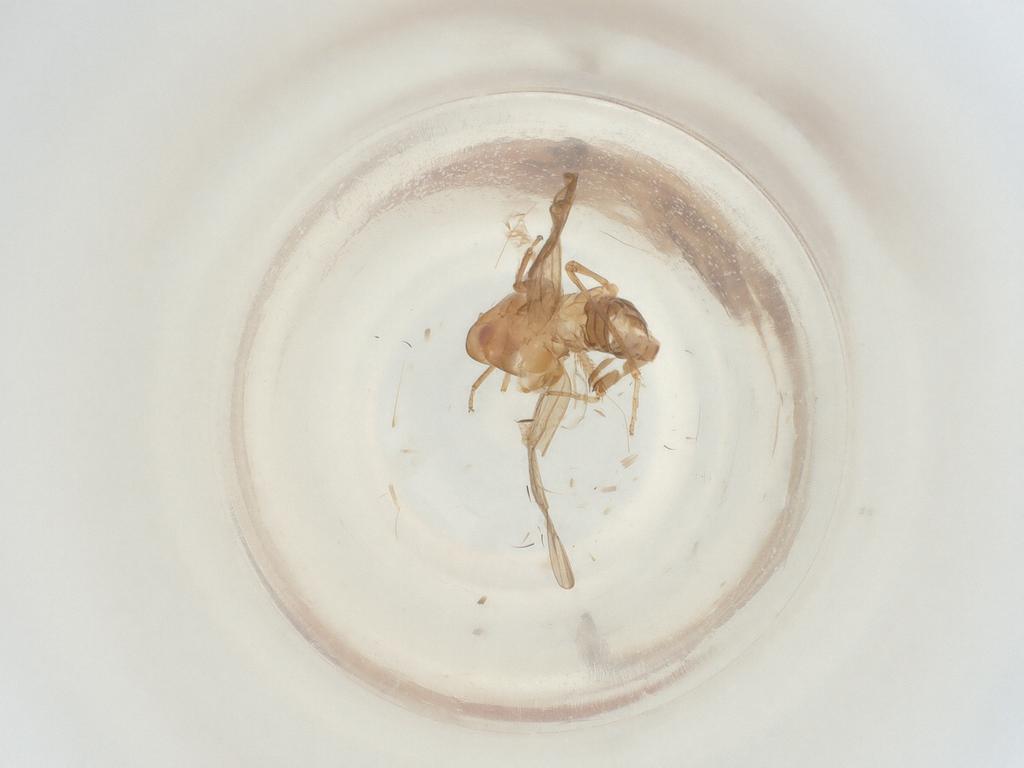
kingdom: Animalia
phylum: Arthropoda
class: Insecta
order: Hemiptera
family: Cicadellidae
